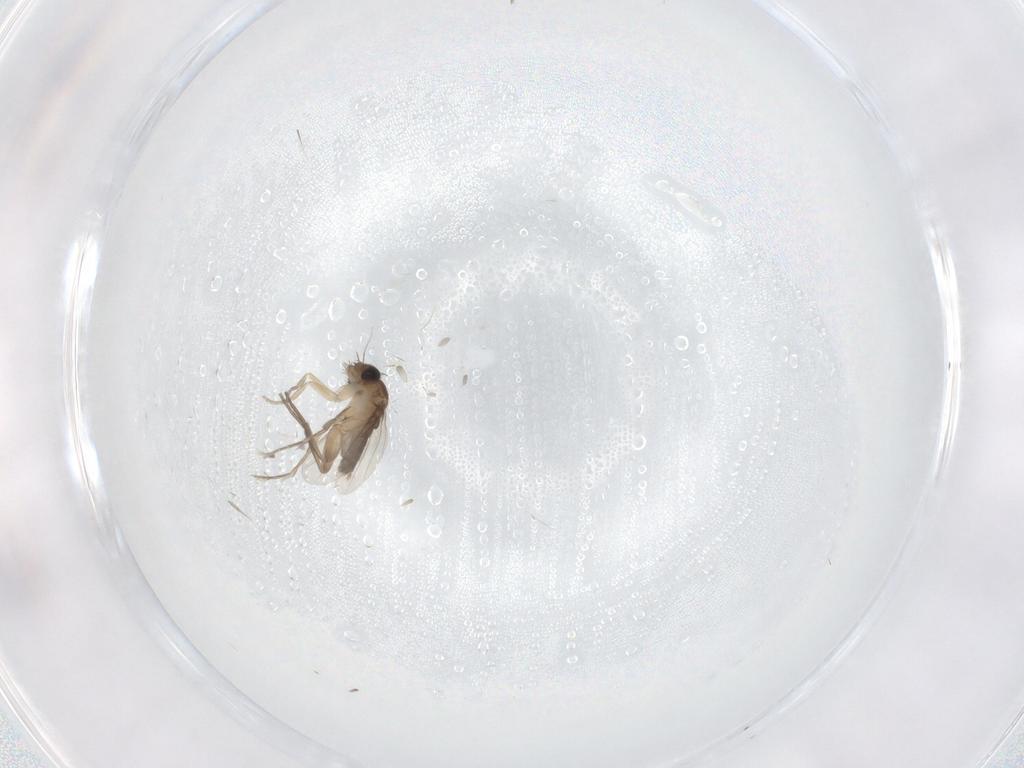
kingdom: Animalia
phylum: Arthropoda
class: Insecta
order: Diptera
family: Phoridae
